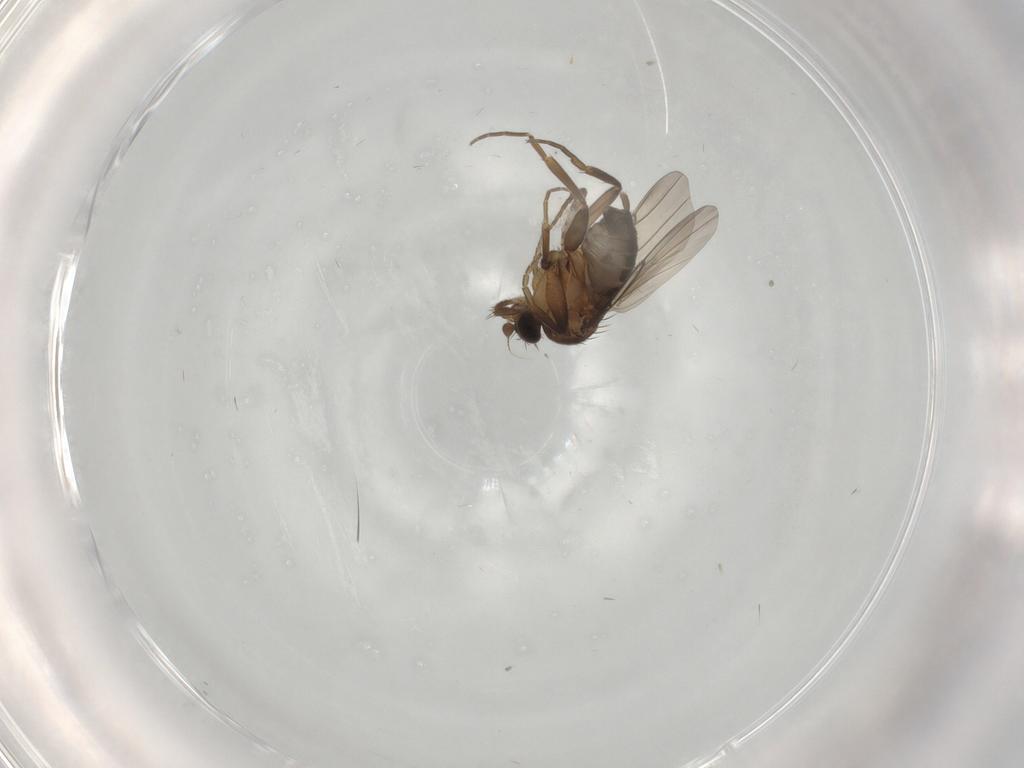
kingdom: Animalia
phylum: Arthropoda
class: Insecta
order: Diptera
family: Phoridae
